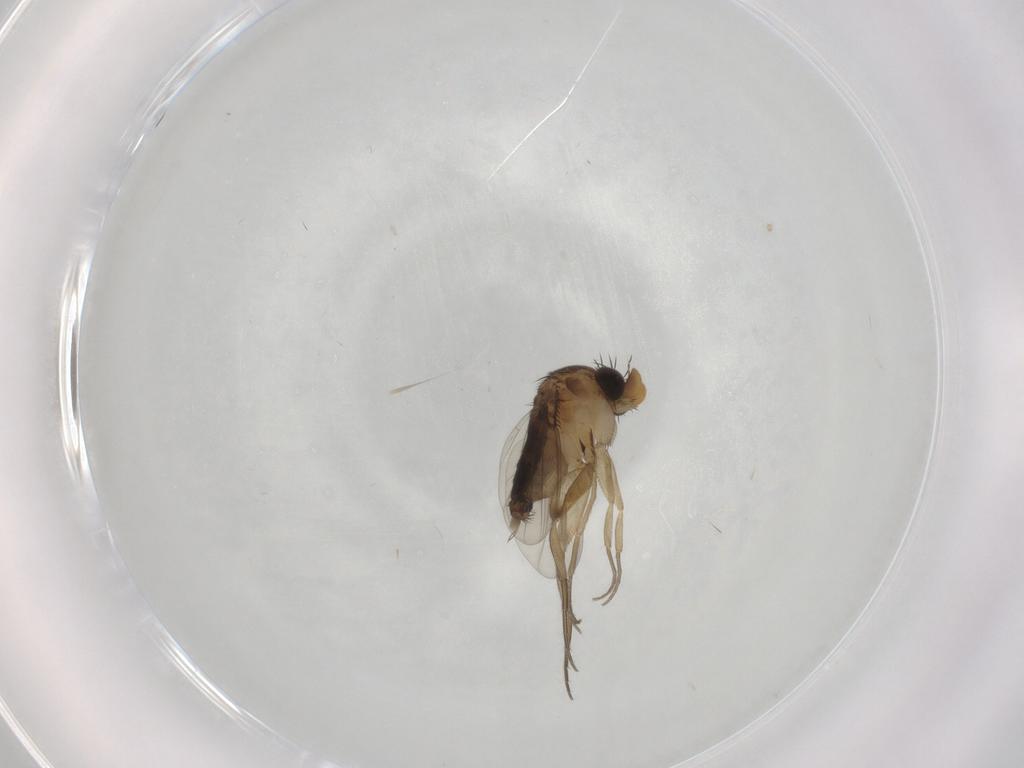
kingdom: Animalia
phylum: Arthropoda
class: Insecta
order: Diptera
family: Phoridae
